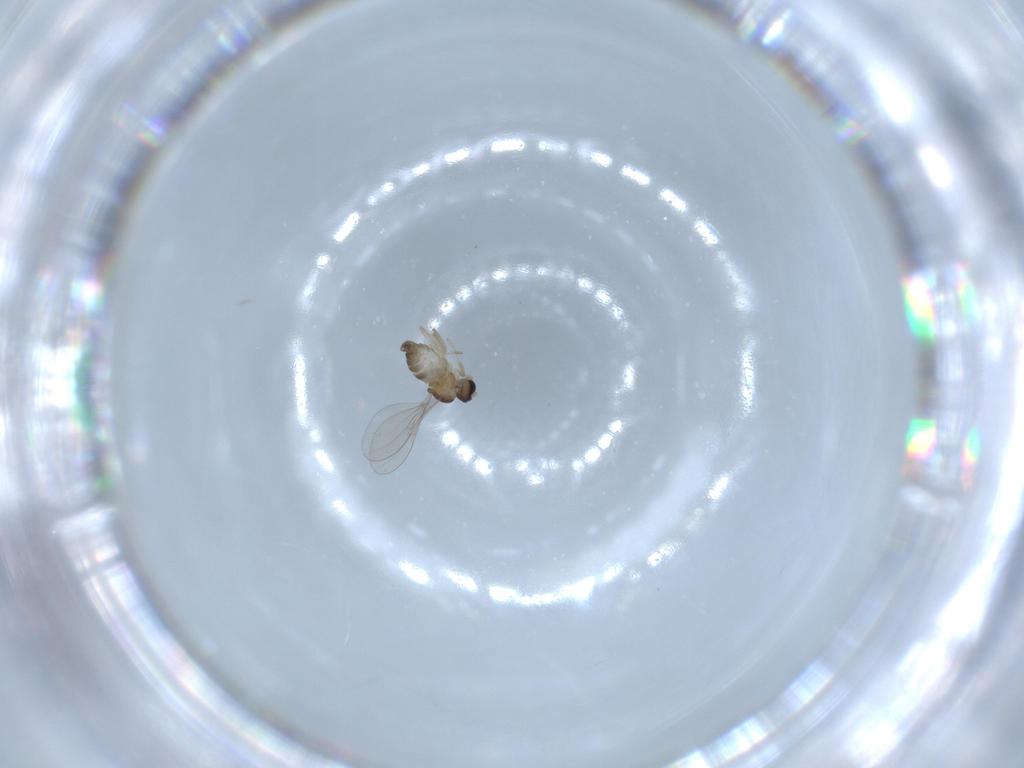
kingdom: Animalia
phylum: Arthropoda
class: Insecta
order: Diptera
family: Cecidomyiidae
